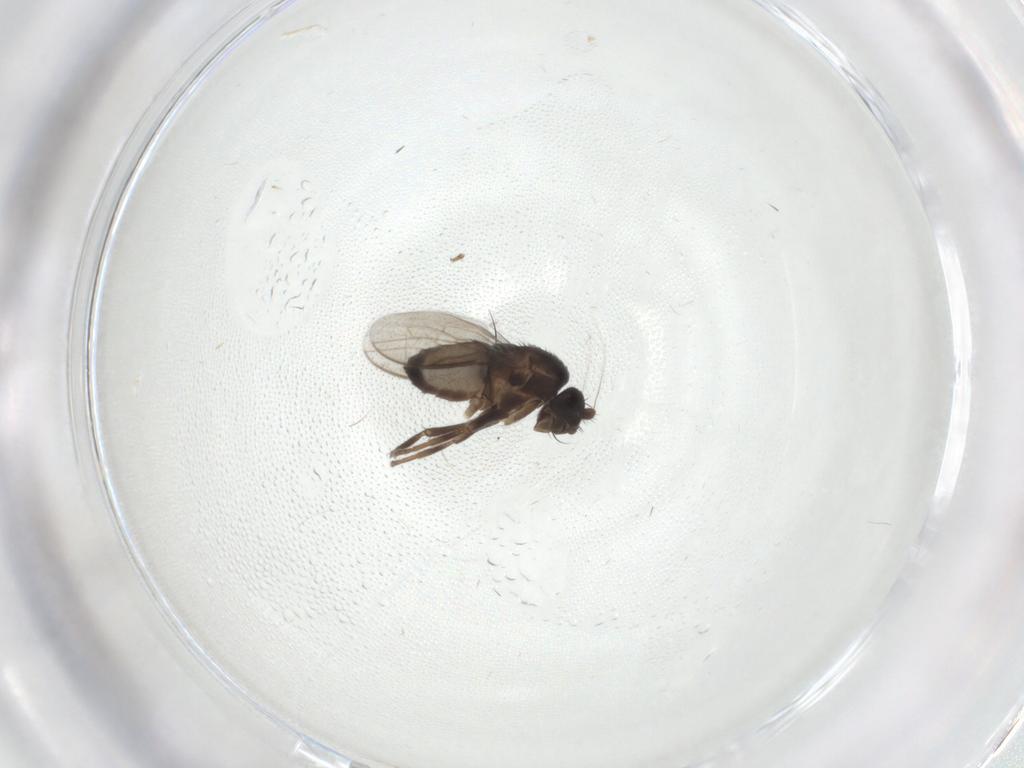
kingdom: Animalia
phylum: Arthropoda
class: Insecta
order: Diptera
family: Sphaeroceridae
